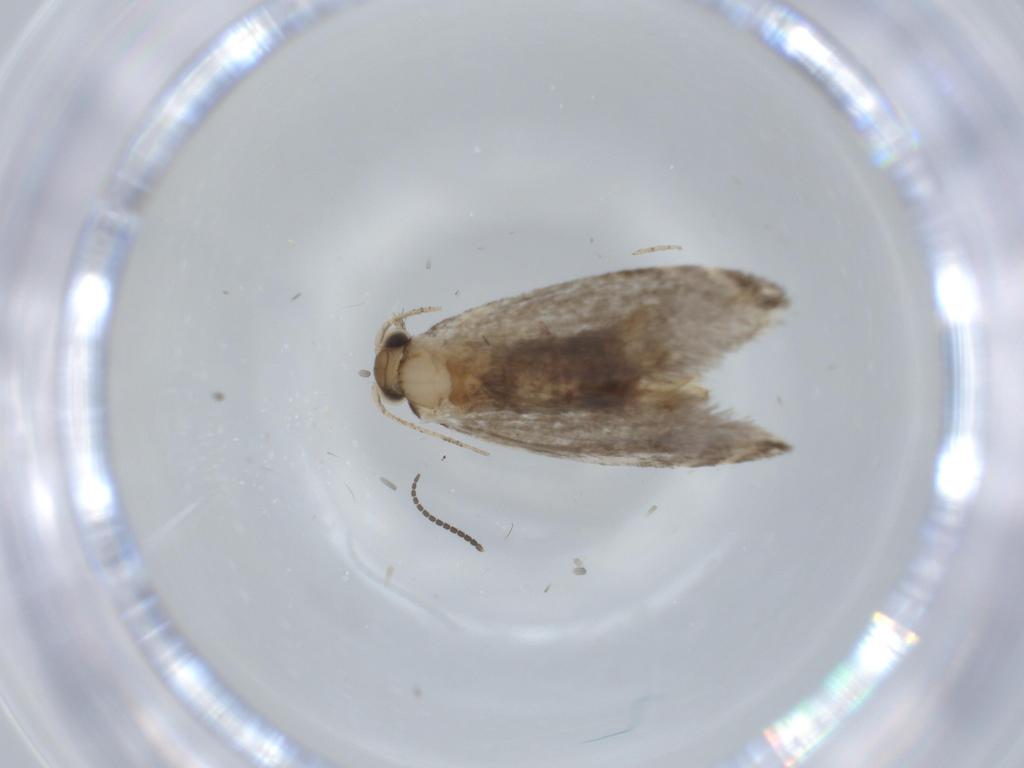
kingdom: Animalia
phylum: Arthropoda
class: Insecta
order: Lepidoptera
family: Tineidae
